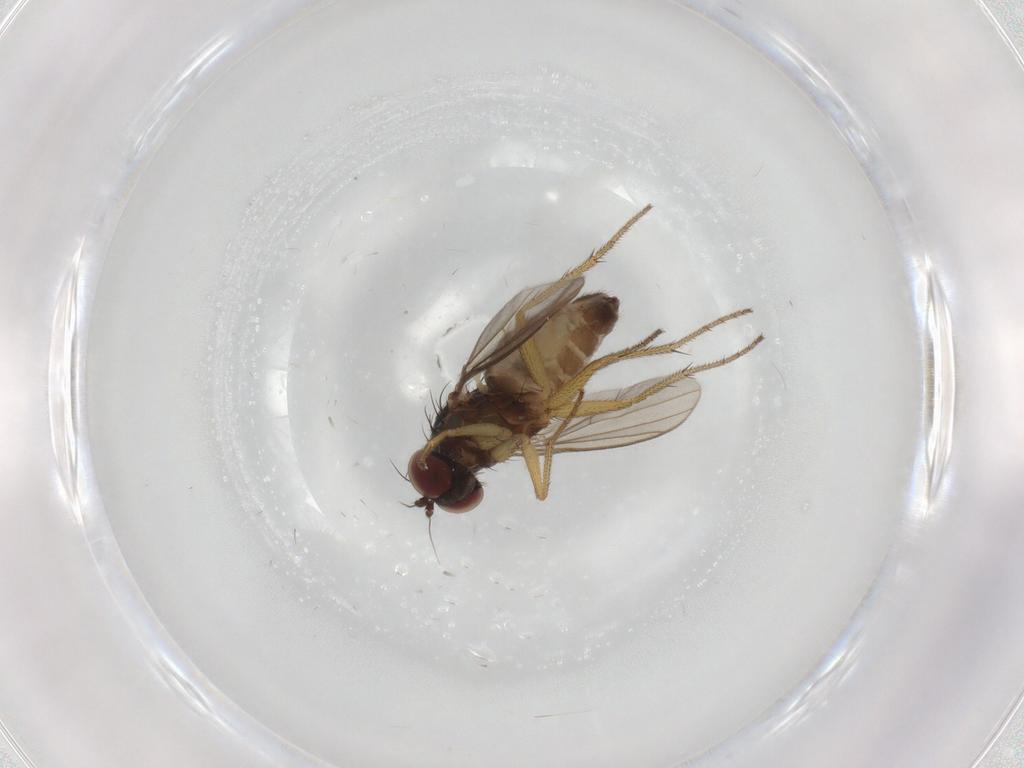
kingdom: Animalia
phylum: Arthropoda
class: Insecta
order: Diptera
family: Dolichopodidae
